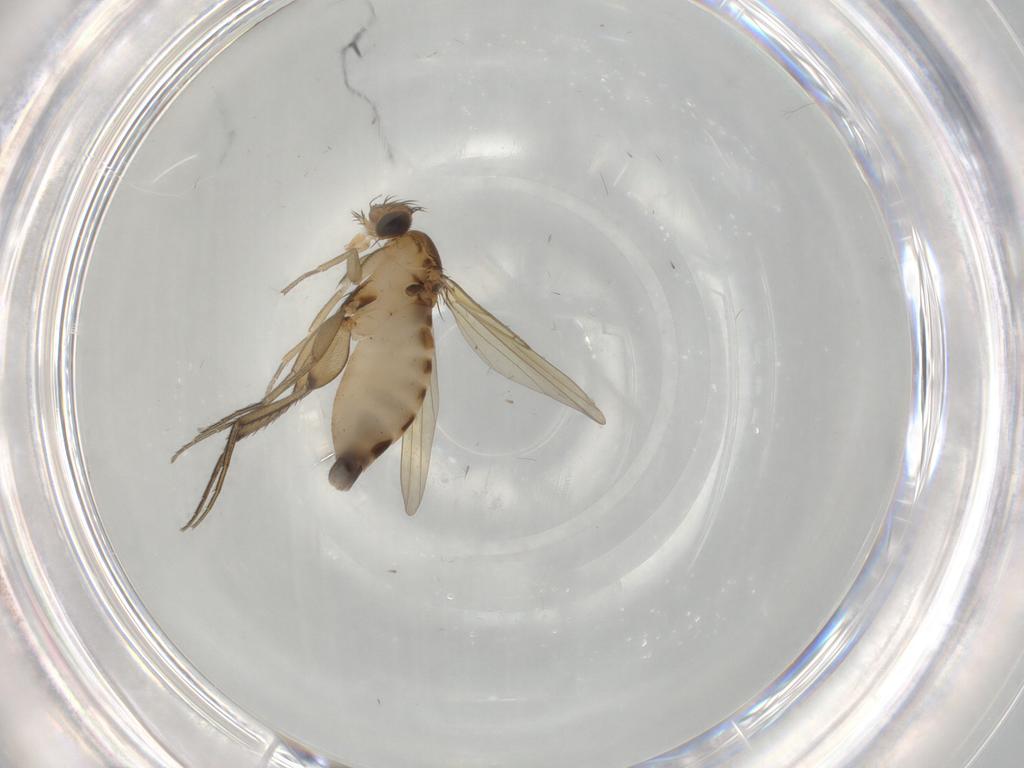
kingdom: Animalia
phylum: Arthropoda
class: Insecta
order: Diptera
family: Phoridae
